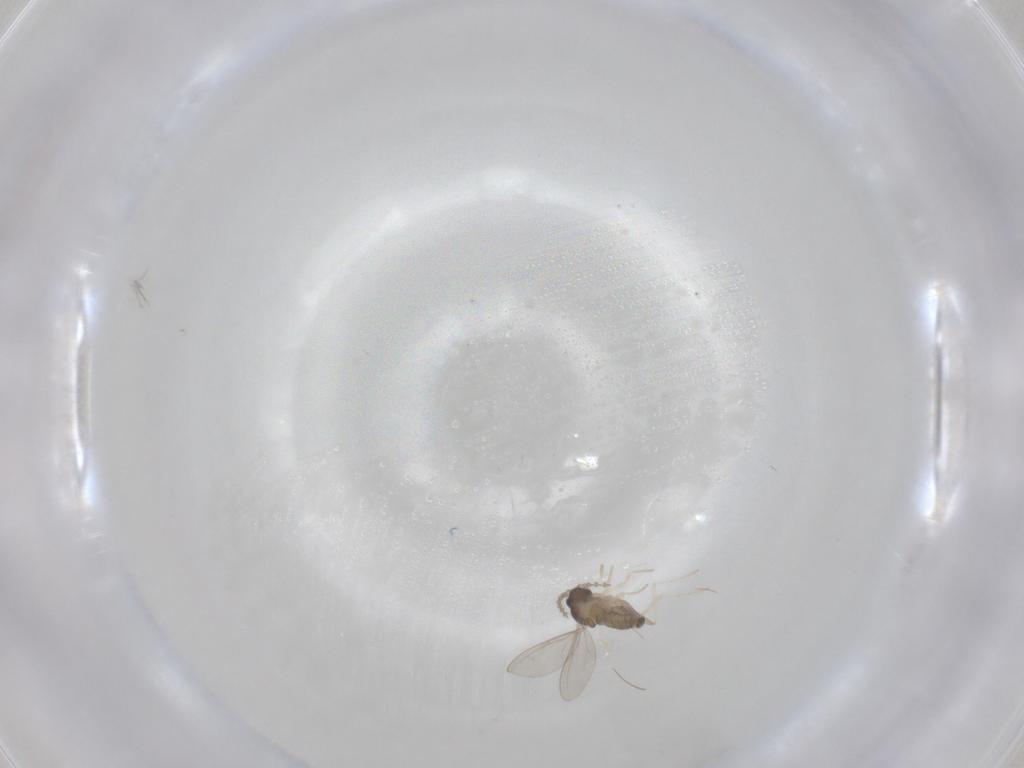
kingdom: Animalia
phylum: Arthropoda
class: Insecta
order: Diptera
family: Cecidomyiidae
